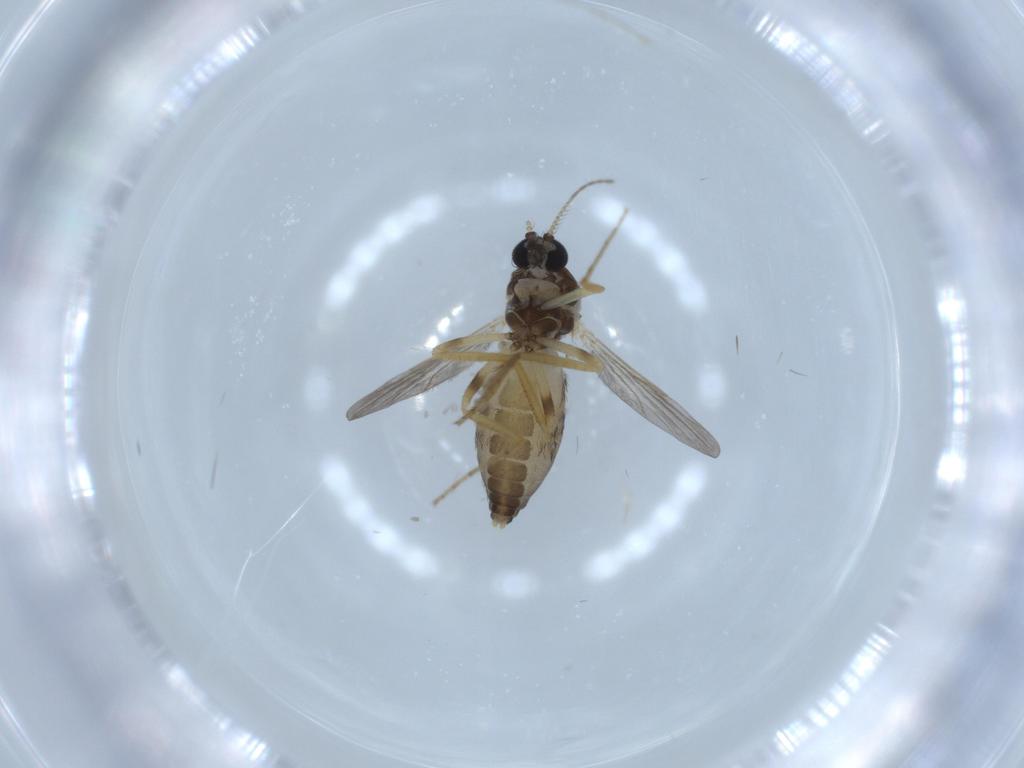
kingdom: Animalia
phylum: Arthropoda
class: Insecta
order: Diptera
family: Ceratopogonidae
